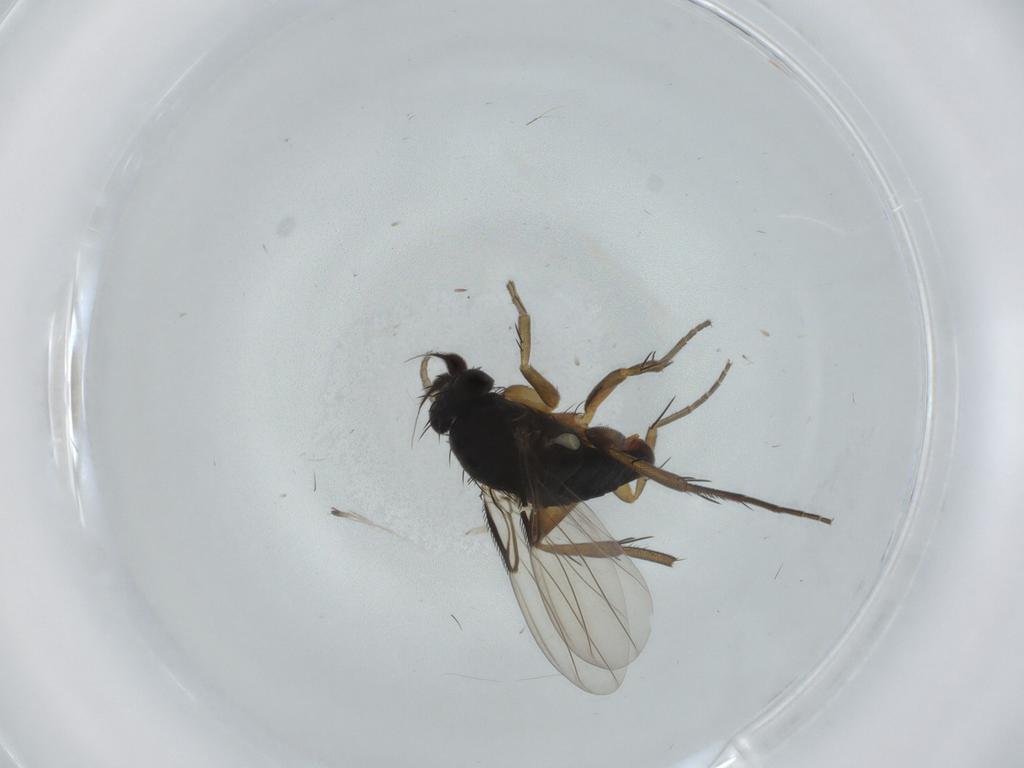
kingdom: Animalia
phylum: Arthropoda
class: Insecta
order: Diptera
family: Phoridae
